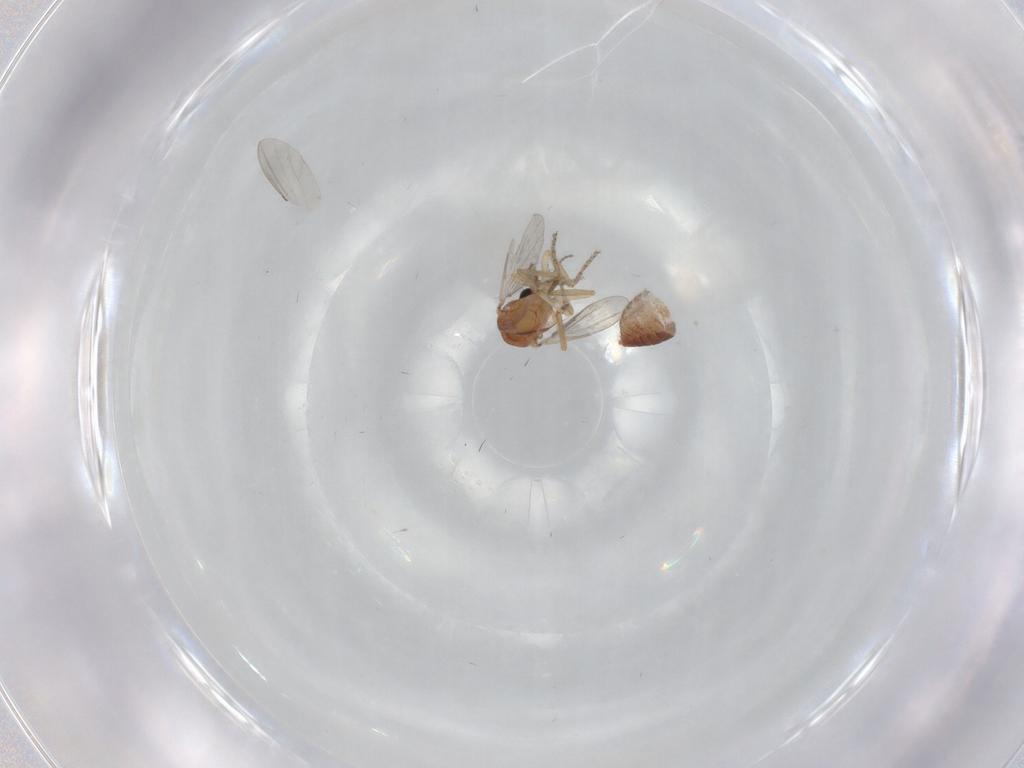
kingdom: Animalia
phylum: Arthropoda
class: Insecta
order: Diptera
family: Ceratopogonidae
